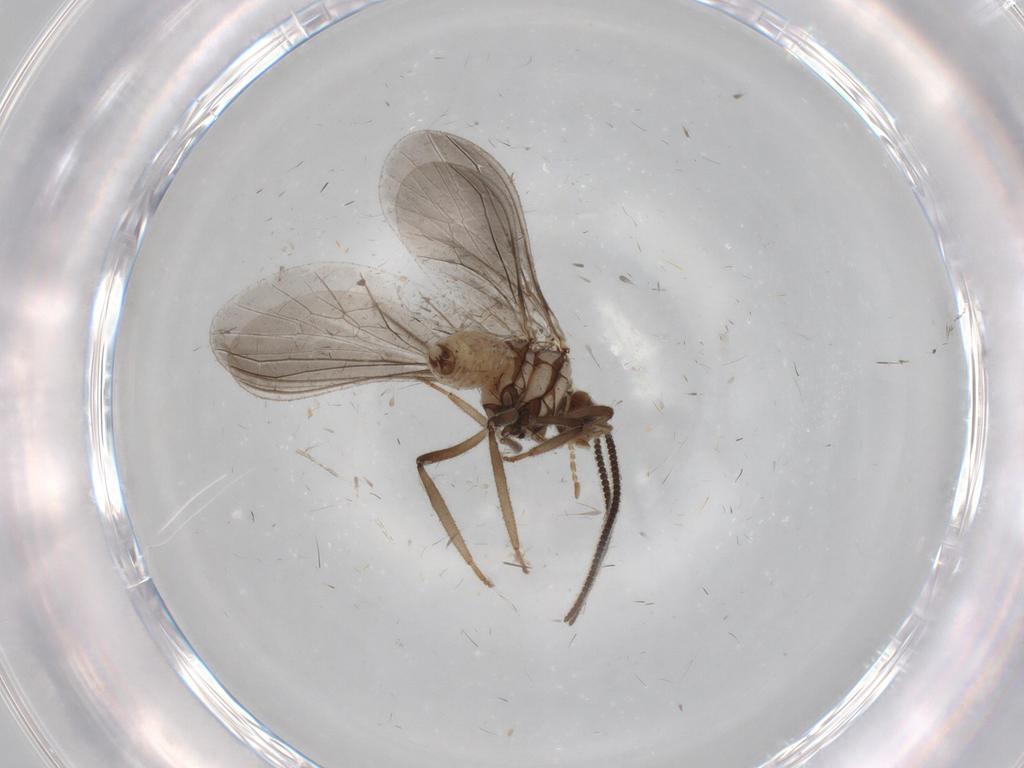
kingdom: Animalia
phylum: Arthropoda
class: Insecta
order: Neuroptera
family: Coniopterygidae
